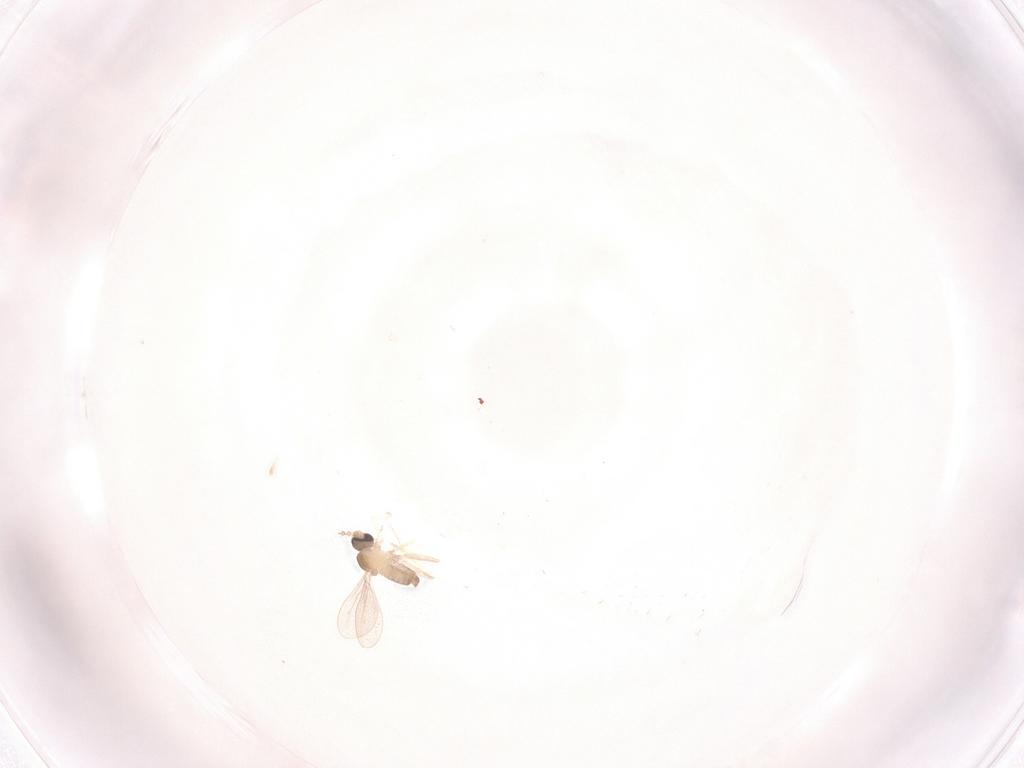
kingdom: Animalia
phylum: Arthropoda
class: Insecta
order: Diptera
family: Cecidomyiidae
